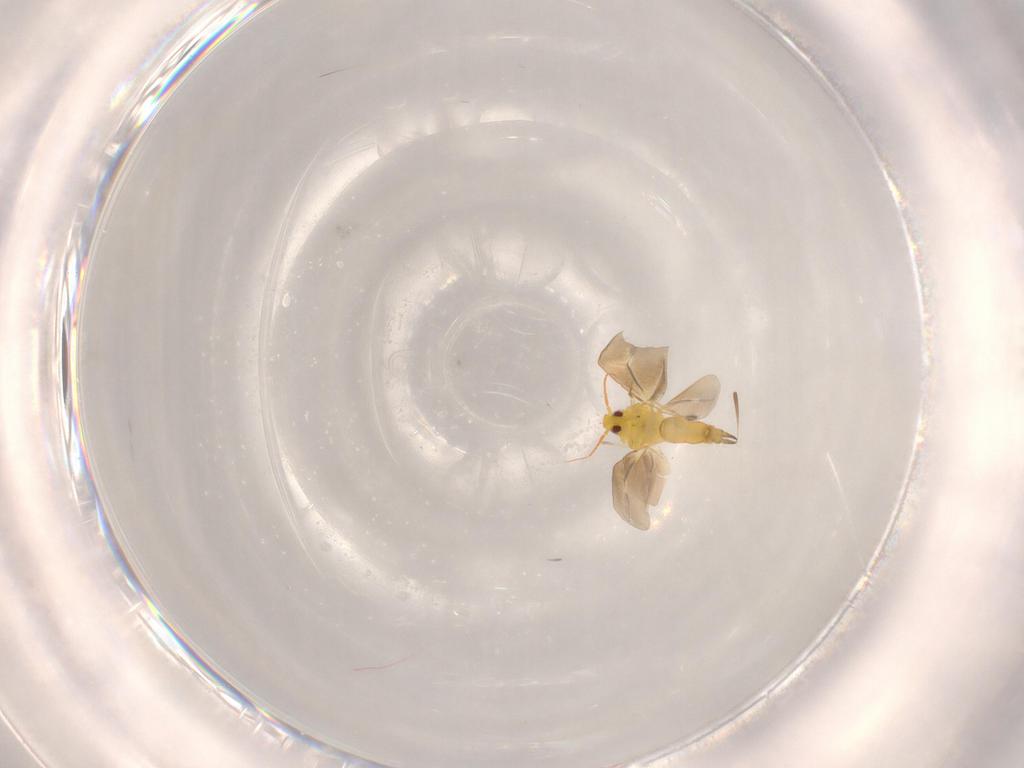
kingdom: Animalia
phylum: Arthropoda
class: Insecta
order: Hemiptera
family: Aleyrodidae
